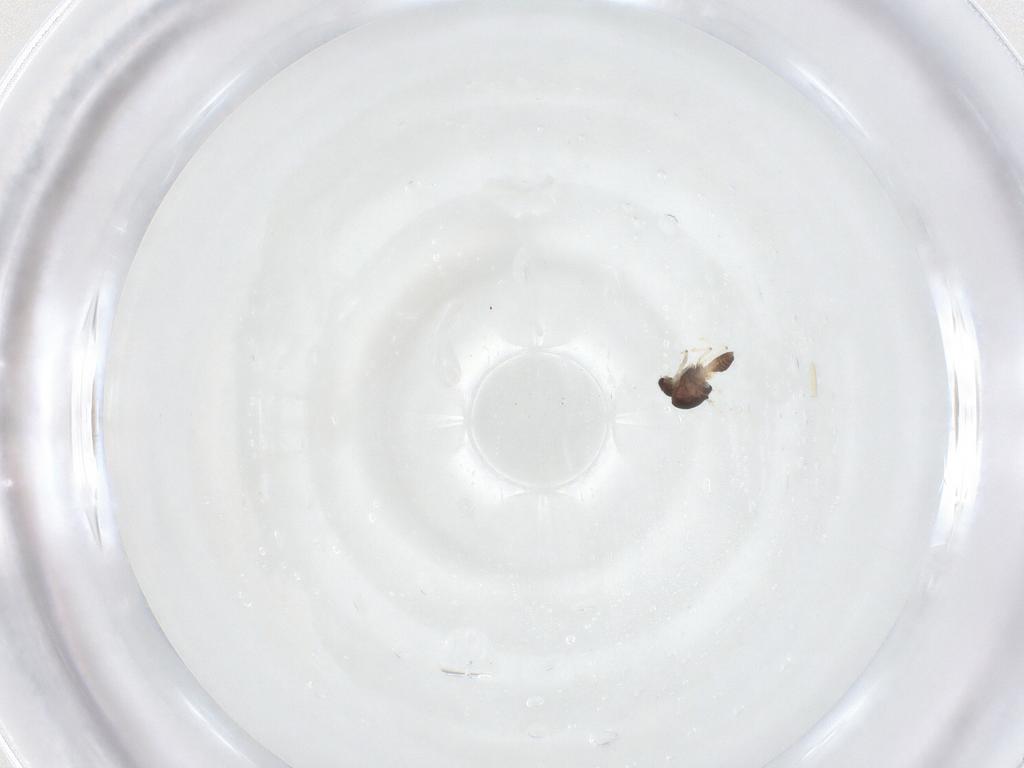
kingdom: Animalia
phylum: Arthropoda
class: Insecta
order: Diptera
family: Chironomidae
